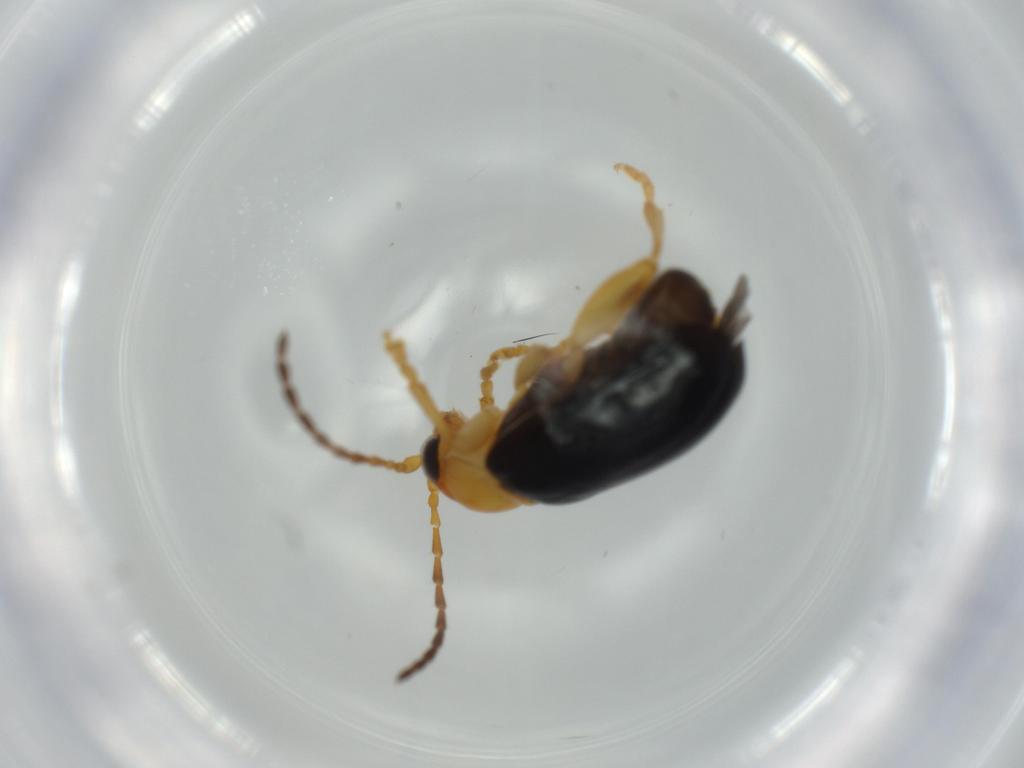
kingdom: Animalia
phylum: Arthropoda
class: Insecta
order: Coleoptera
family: Chrysomelidae
